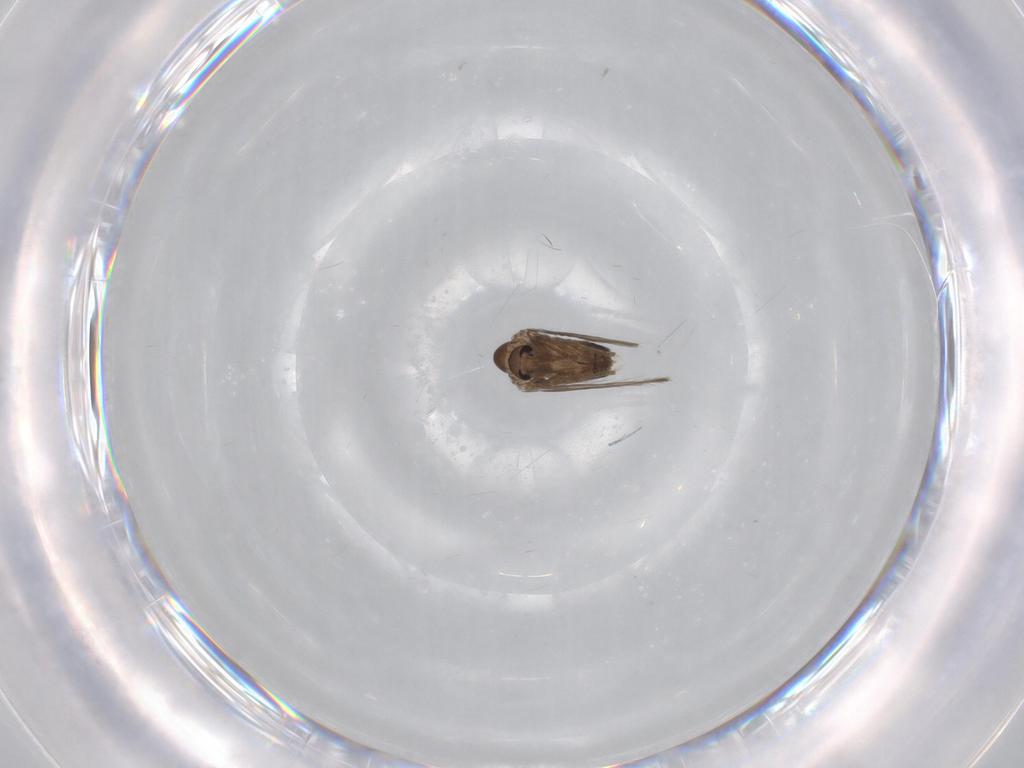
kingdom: Animalia
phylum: Arthropoda
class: Insecta
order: Diptera
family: Psychodidae
